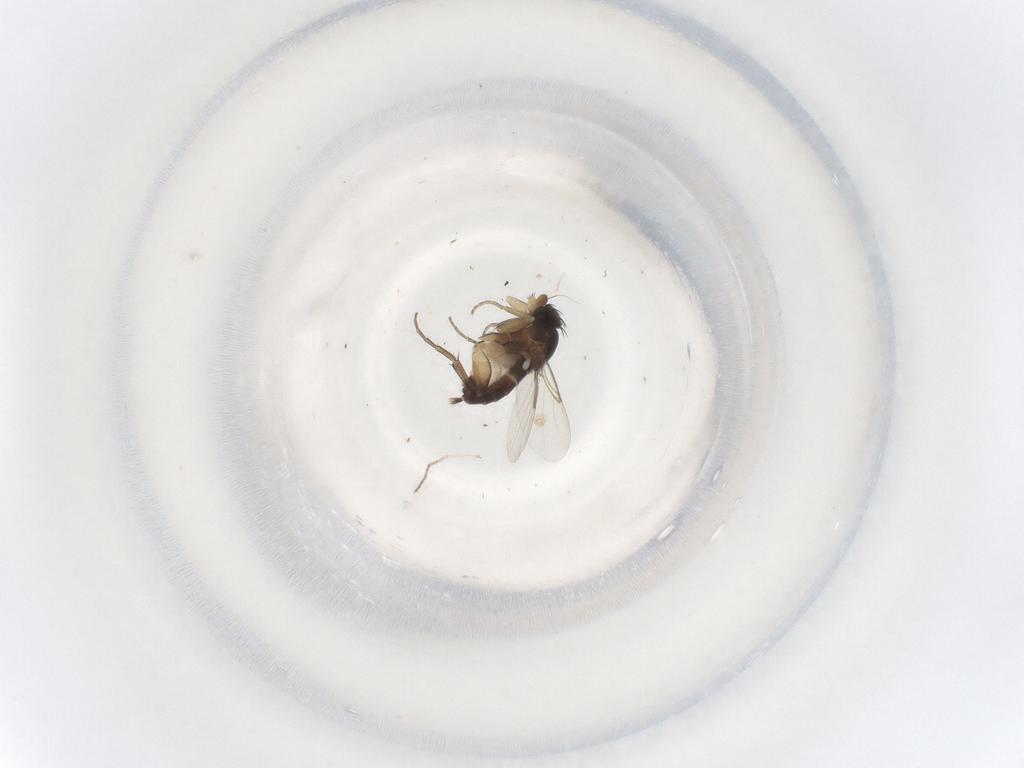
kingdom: Animalia
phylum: Arthropoda
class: Insecta
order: Diptera
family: Phoridae
